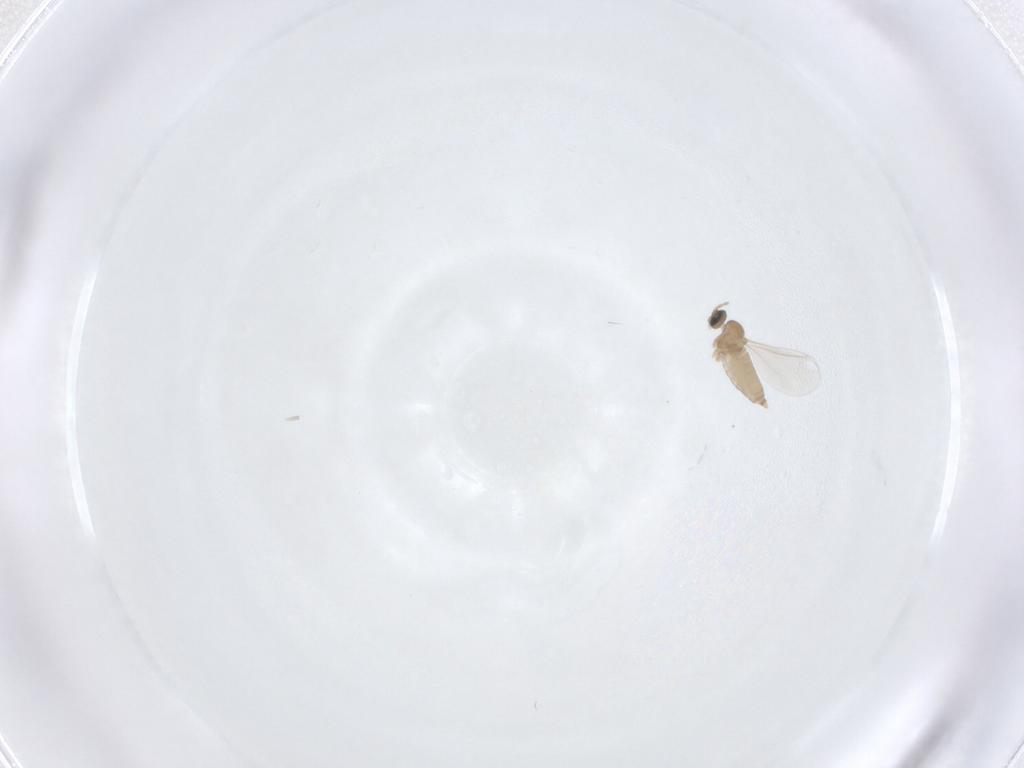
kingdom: Animalia
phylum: Arthropoda
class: Insecta
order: Diptera
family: Cecidomyiidae
